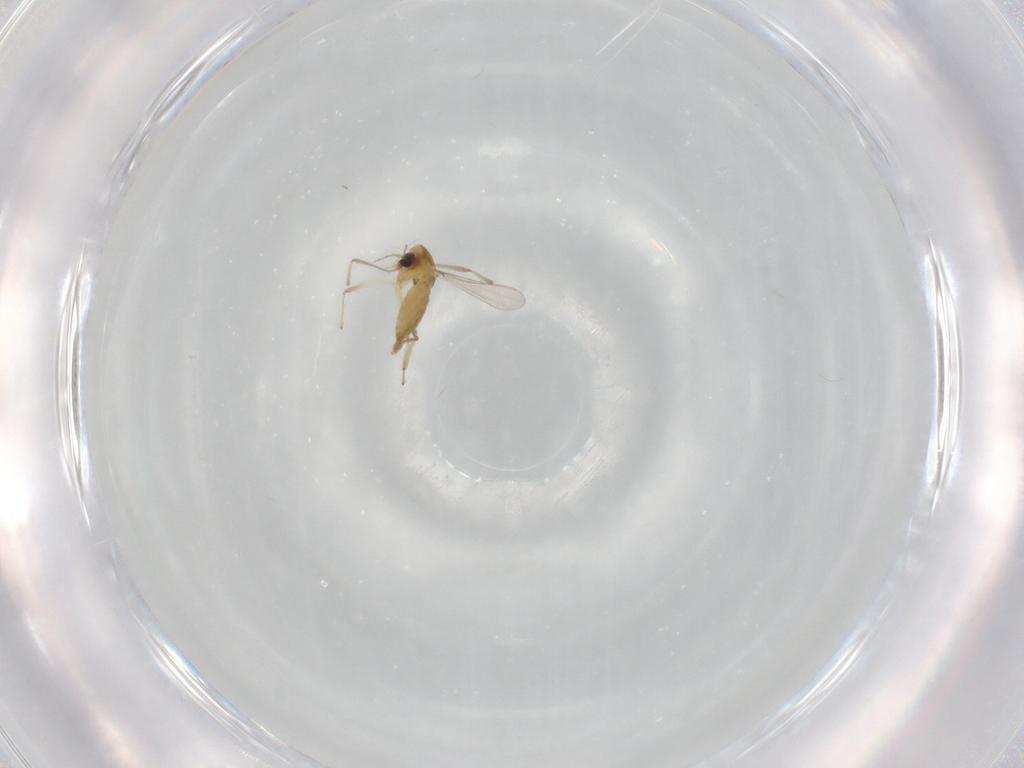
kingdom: Animalia
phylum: Arthropoda
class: Insecta
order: Diptera
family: Chironomidae
